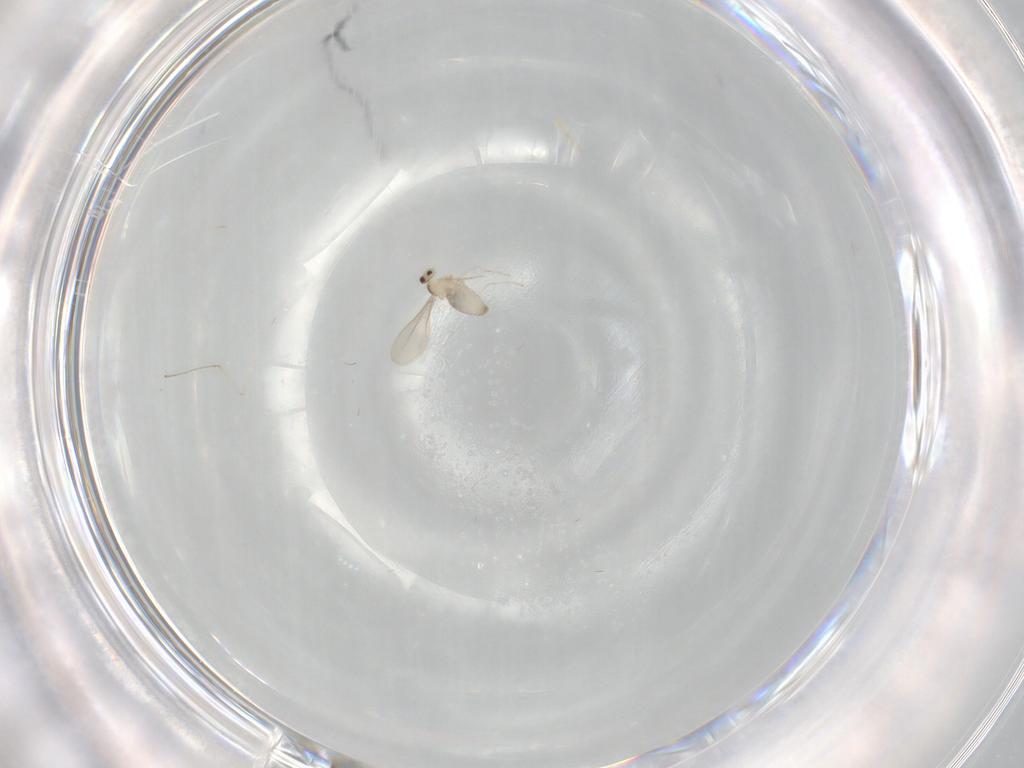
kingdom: Animalia
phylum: Arthropoda
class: Insecta
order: Diptera
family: Cecidomyiidae
